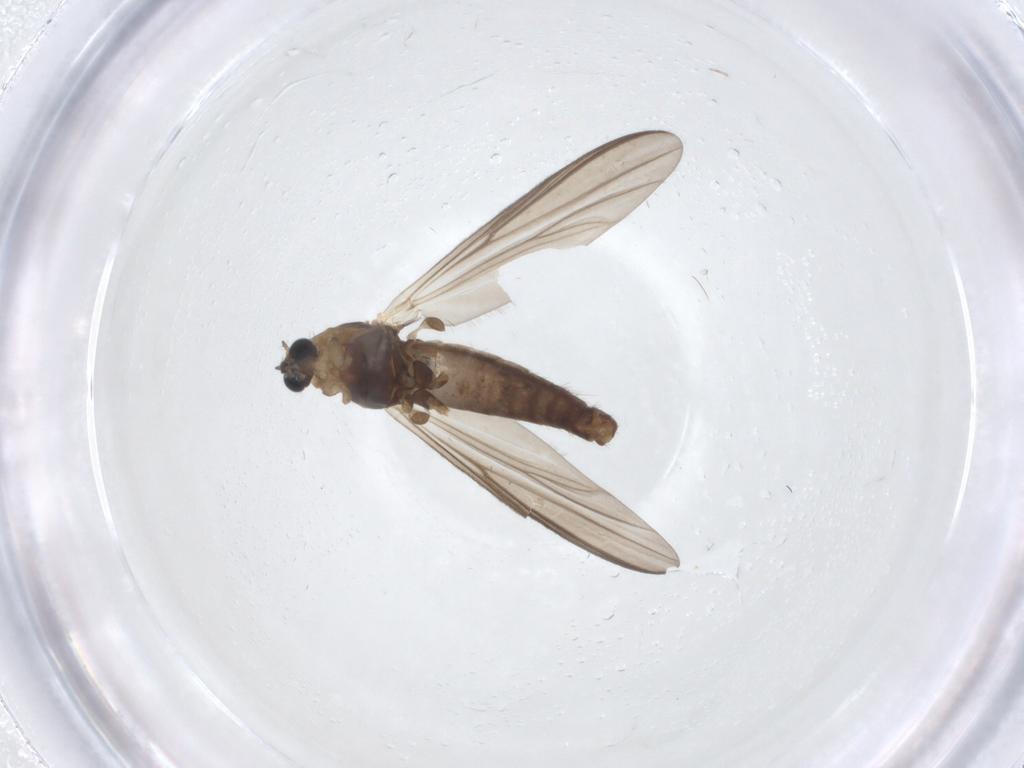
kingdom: Animalia
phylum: Arthropoda
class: Insecta
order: Diptera
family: Chironomidae
